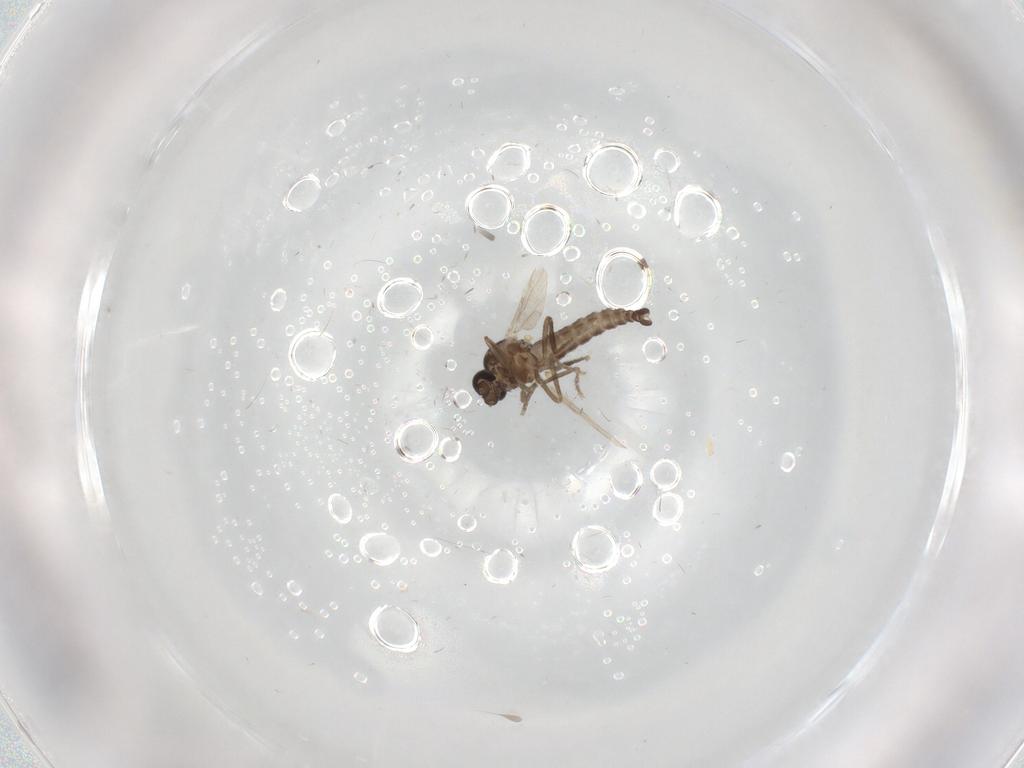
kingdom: Animalia
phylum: Arthropoda
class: Insecta
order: Diptera
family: Ceratopogonidae
